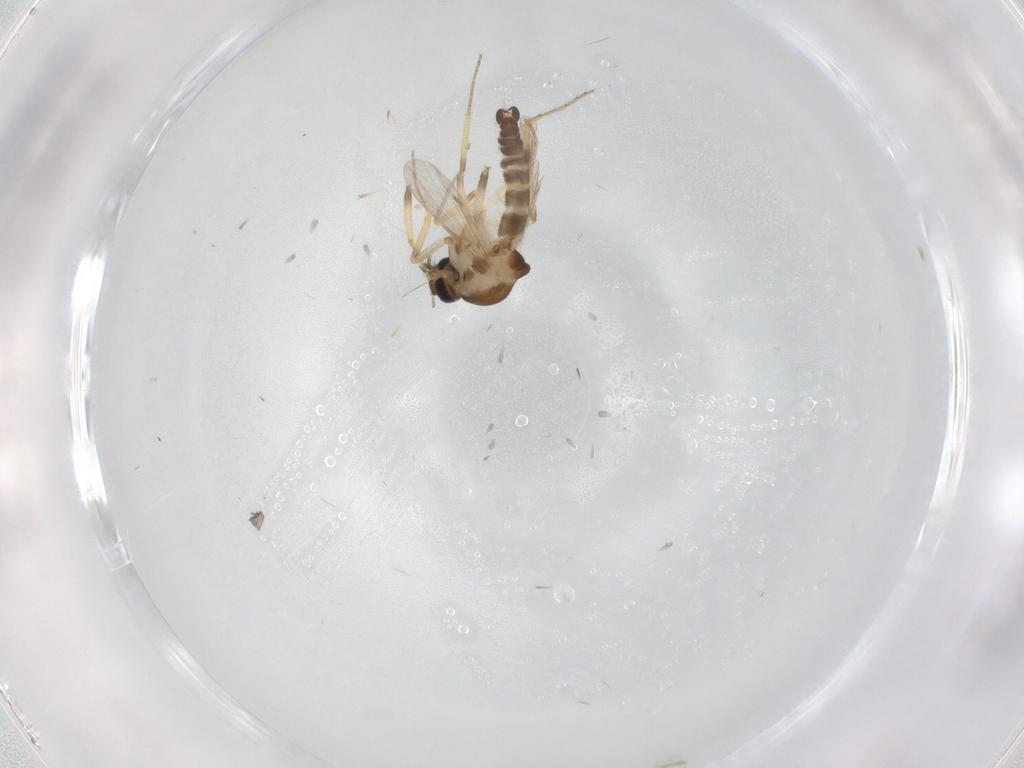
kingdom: Animalia
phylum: Arthropoda
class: Insecta
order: Diptera
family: Ceratopogonidae
